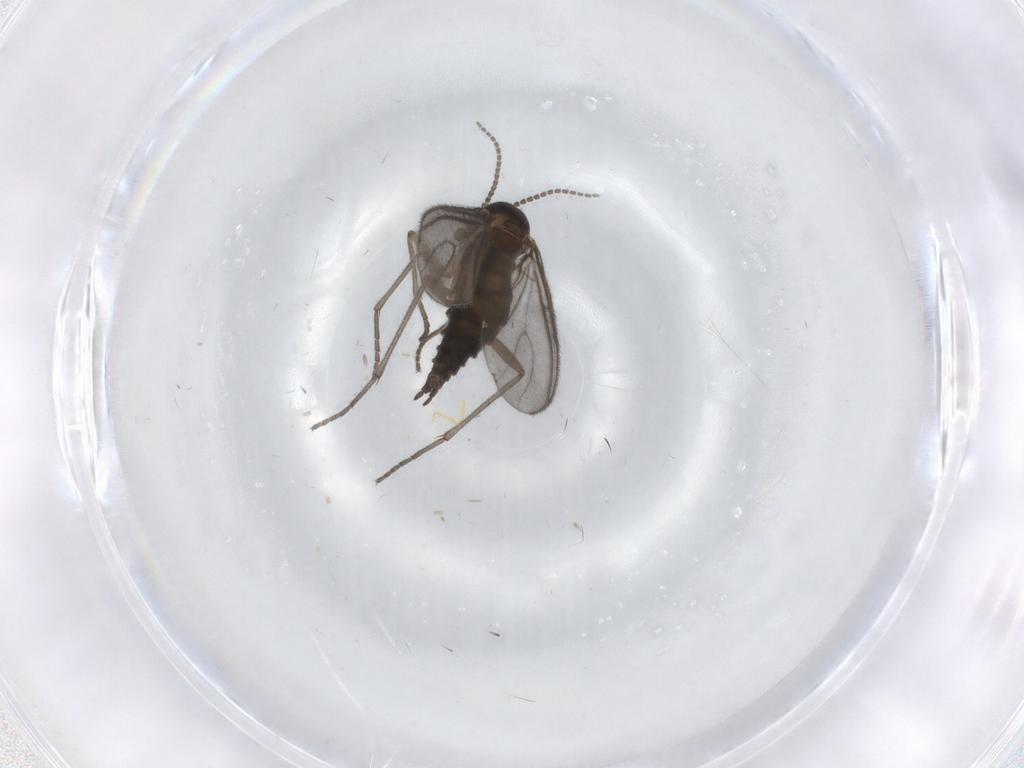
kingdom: Animalia
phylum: Arthropoda
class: Insecta
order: Diptera
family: Sciaridae
